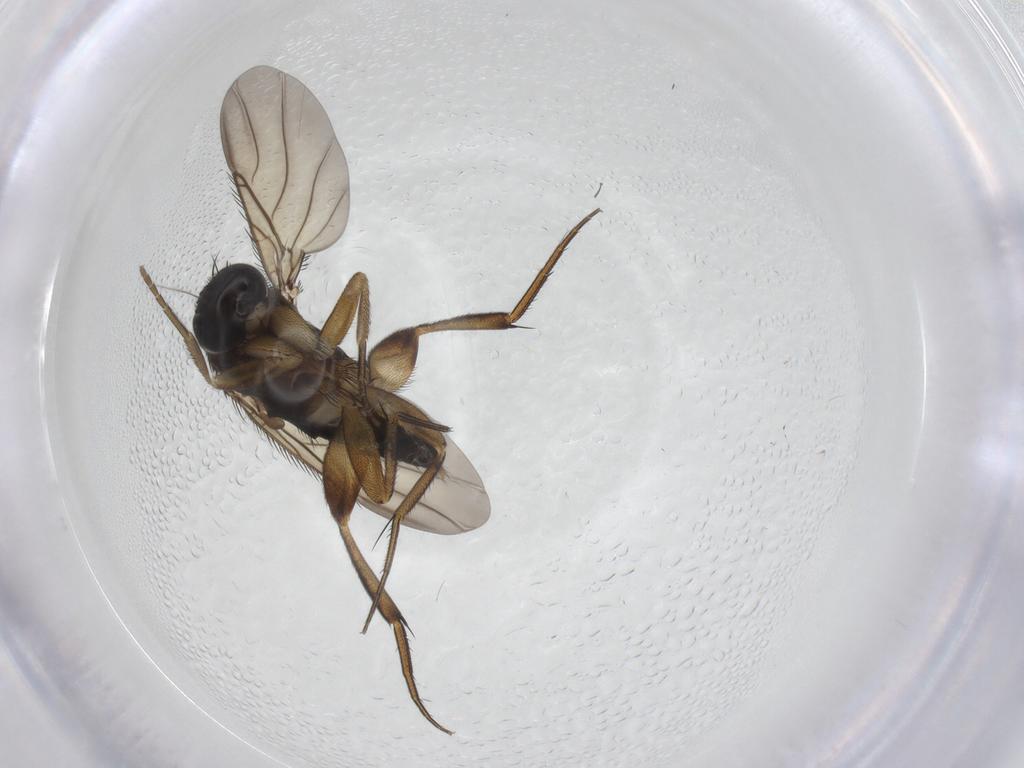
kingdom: Animalia
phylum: Arthropoda
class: Insecta
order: Diptera
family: Phoridae
